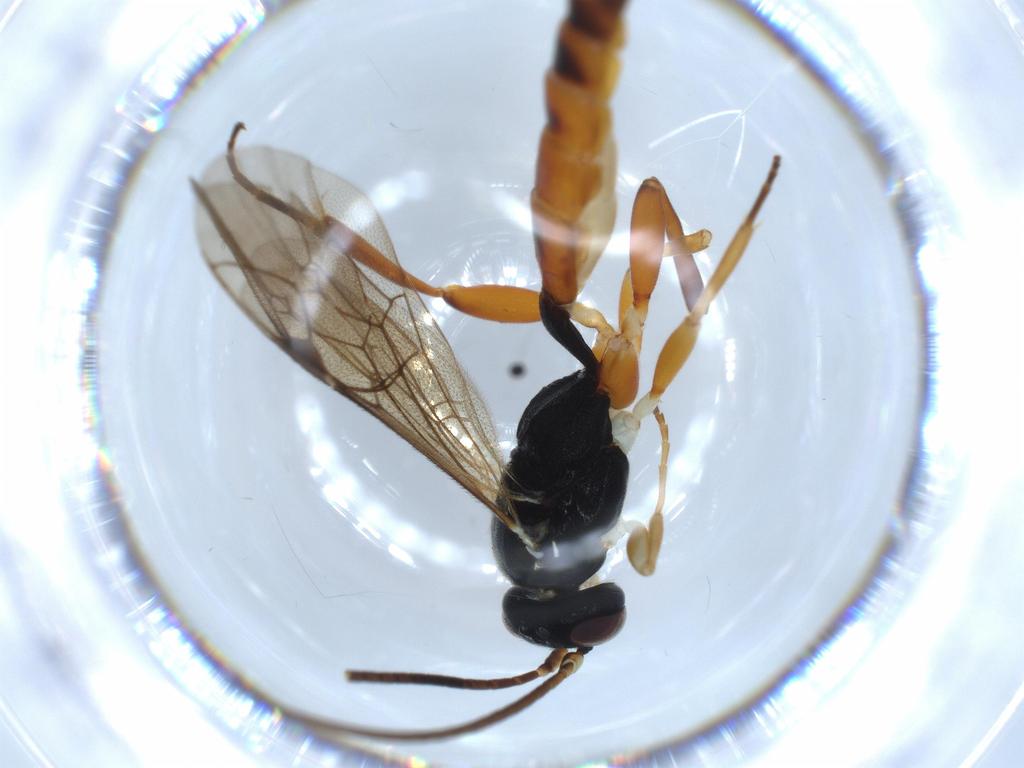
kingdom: Animalia
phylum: Arthropoda
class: Insecta
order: Hymenoptera
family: Ichneumonidae
